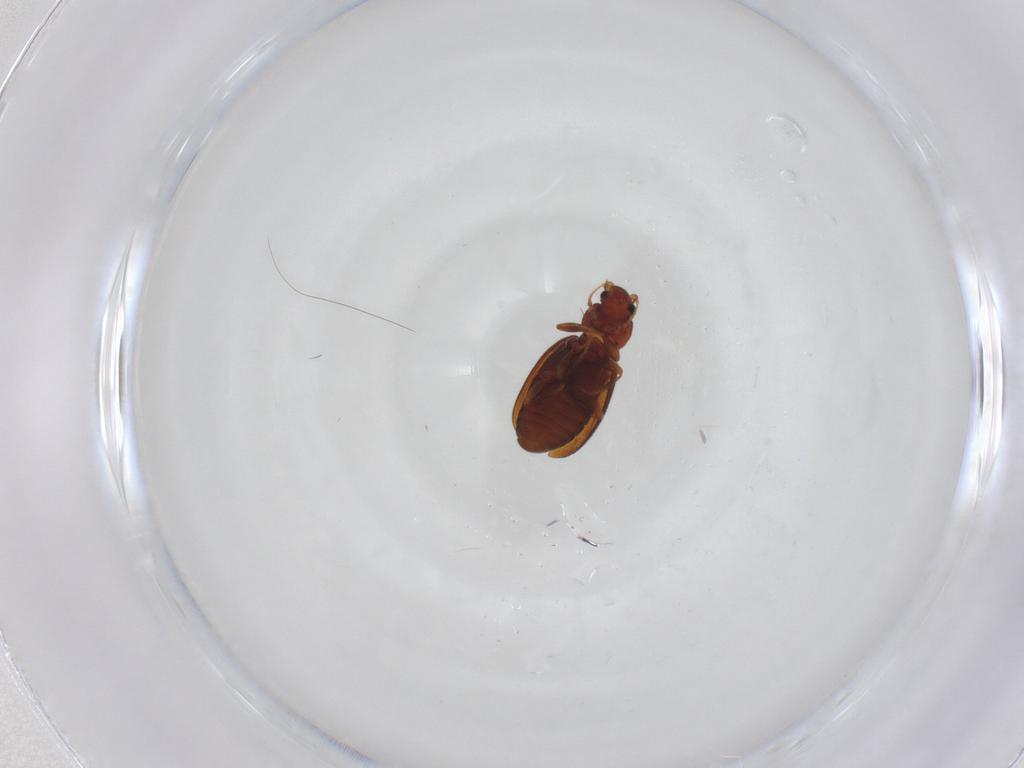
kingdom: Animalia
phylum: Arthropoda
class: Insecta
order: Coleoptera
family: Latridiidae
